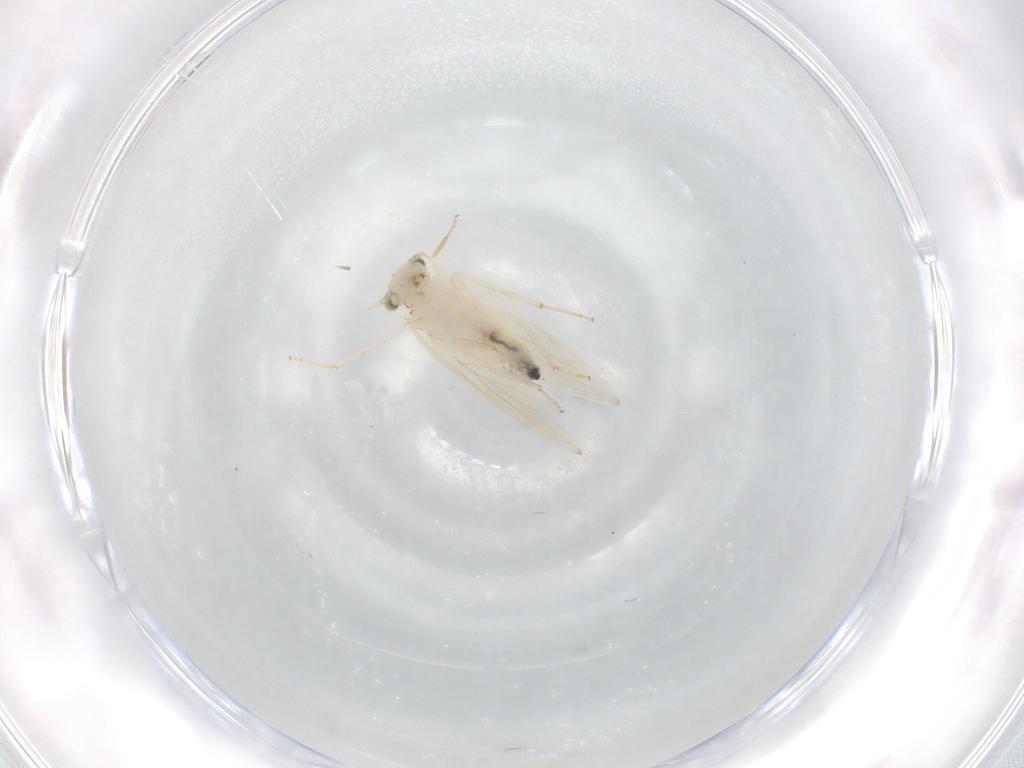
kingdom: Animalia
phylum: Arthropoda
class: Insecta
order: Psocodea
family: Lepidopsocidae
